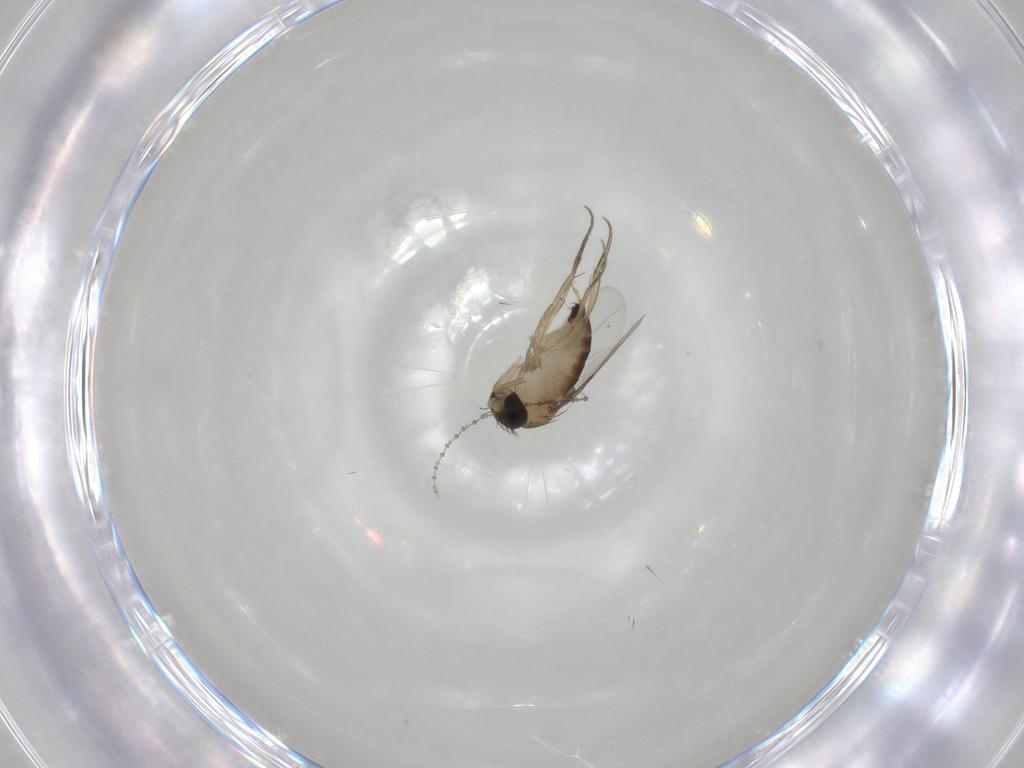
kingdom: Animalia
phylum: Arthropoda
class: Insecta
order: Diptera
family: Phoridae
